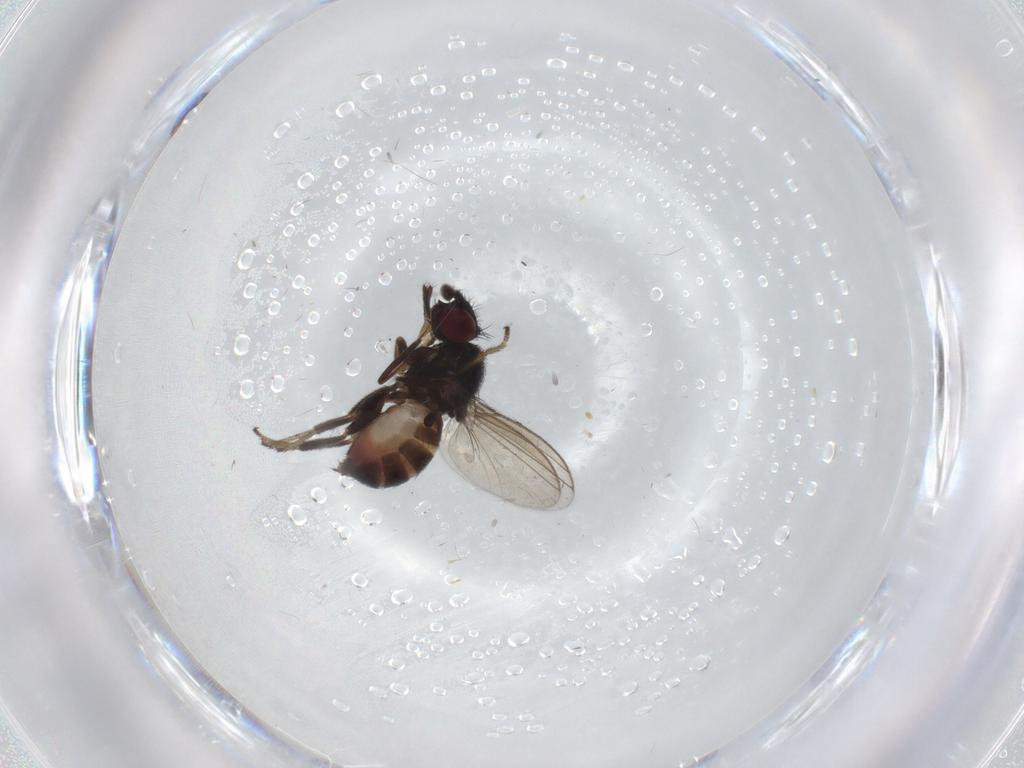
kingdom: Animalia
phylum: Arthropoda
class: Insecta
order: Diptera
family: Milichiidae
